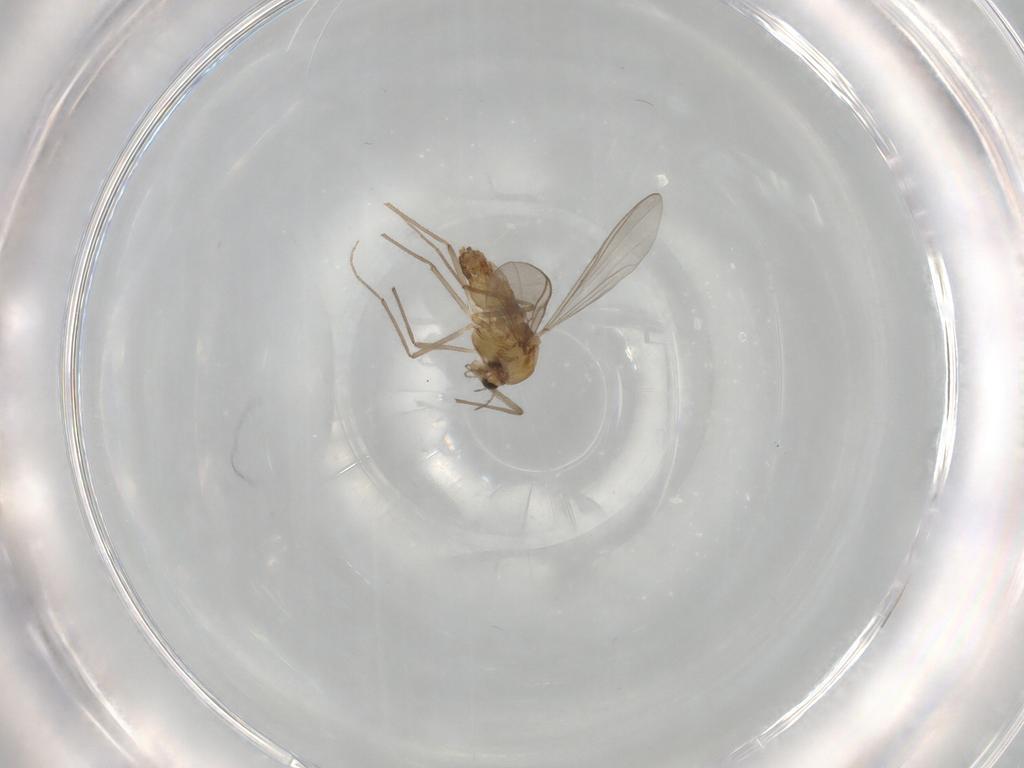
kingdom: Animalia
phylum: Arthropoda
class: Insecta
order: Diptera
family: Chironomidae
